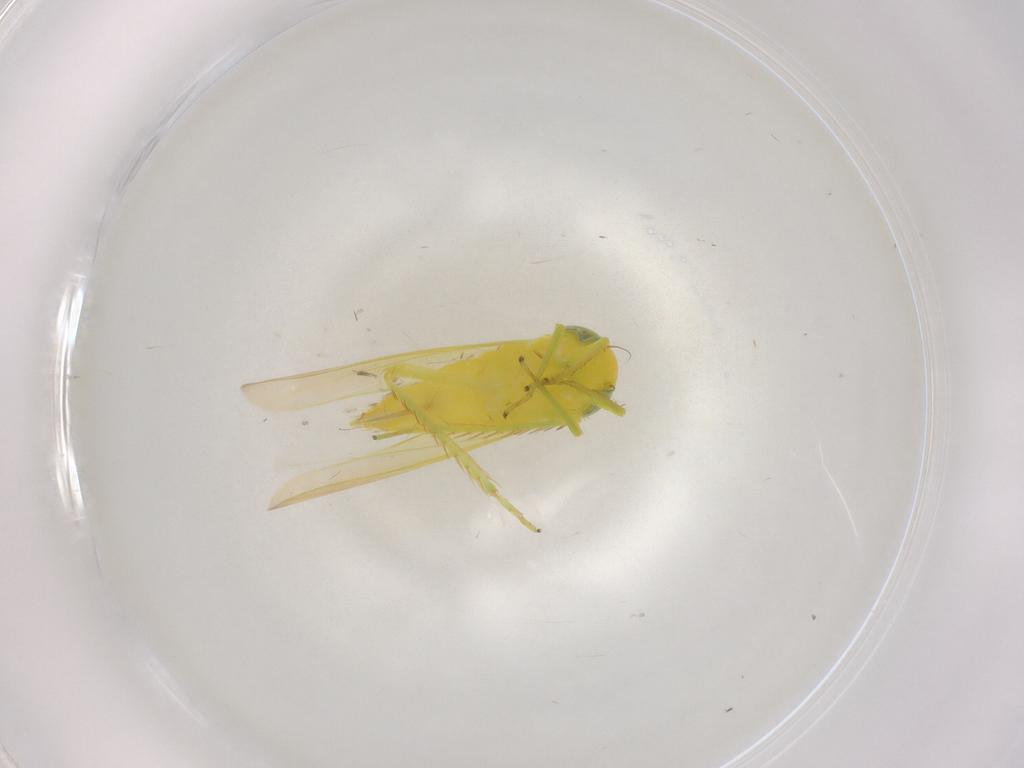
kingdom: Animalia
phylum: Arthropoda
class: Insecta
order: Hemiptera
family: Cicadellidae
